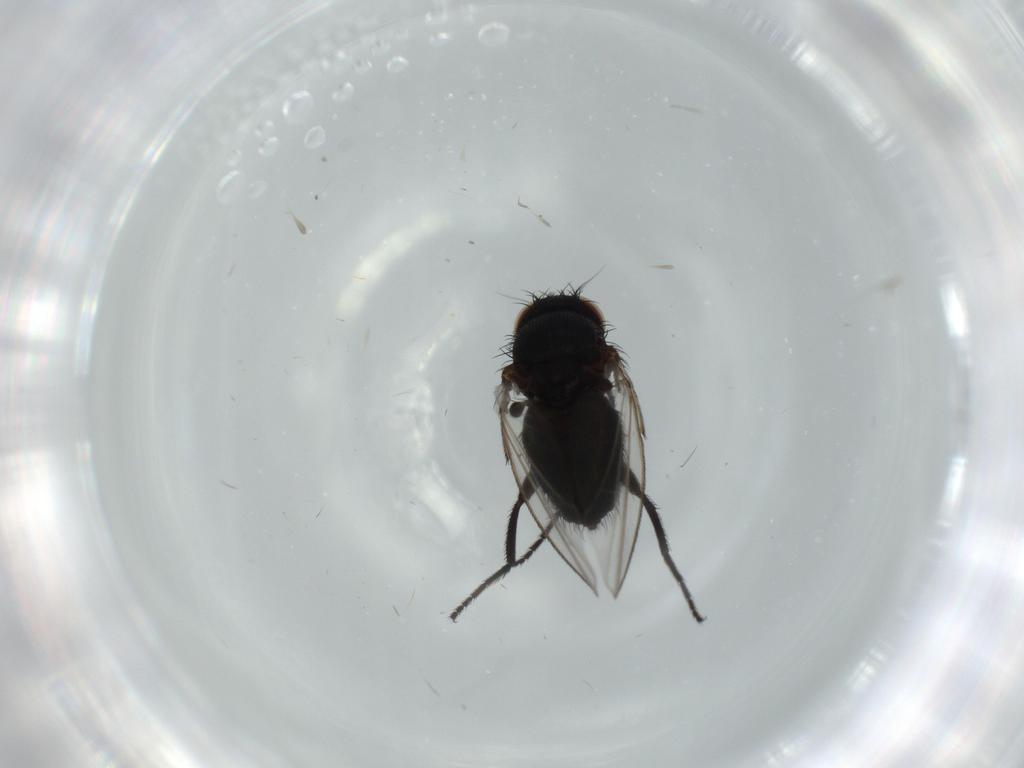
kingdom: Animalia
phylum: Arthropoda
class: Insecta
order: Diptera
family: Milichiidae
